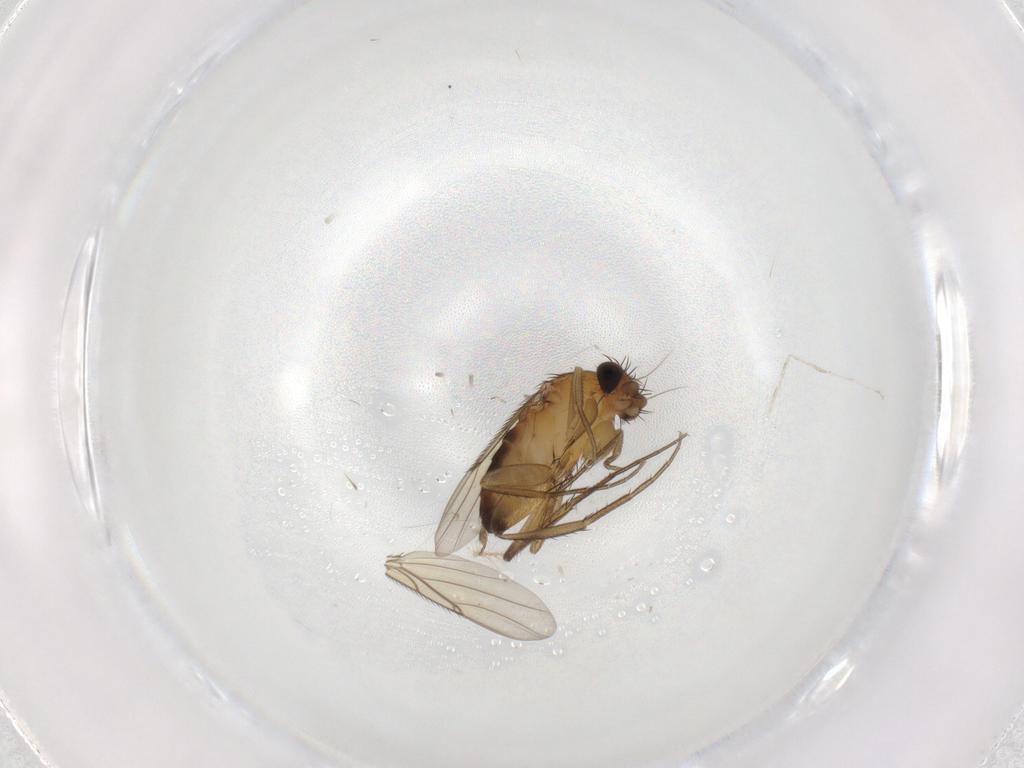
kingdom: Animalia
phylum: Arthropoda
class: Insecta
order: Diptera
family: Phoridae
